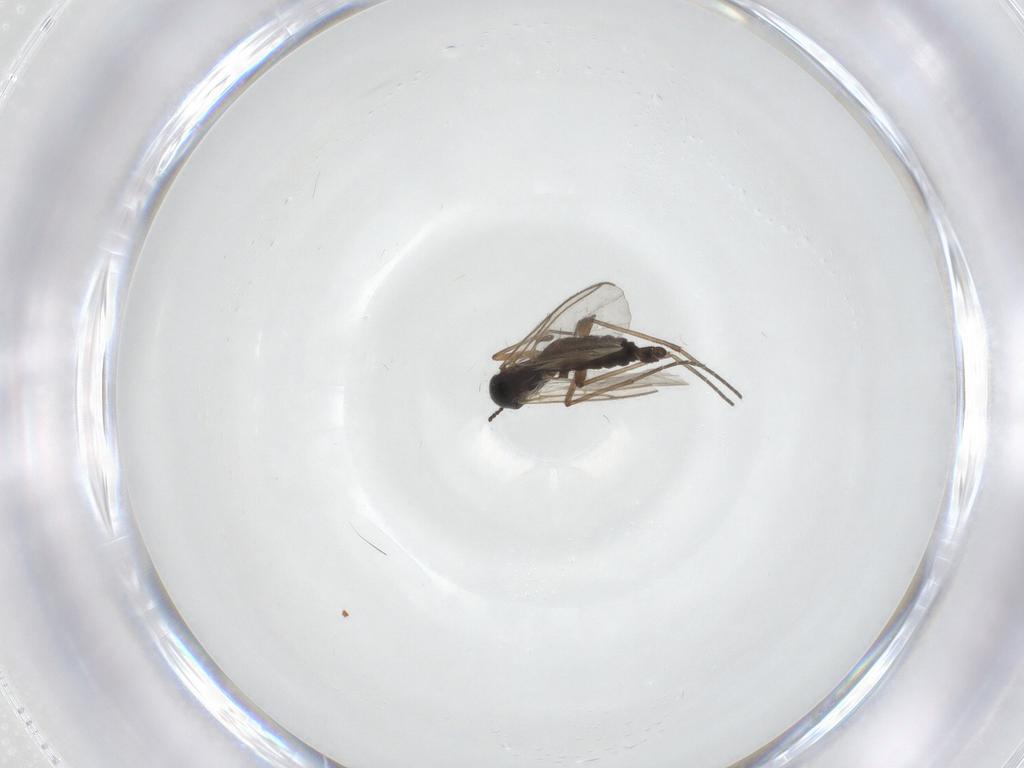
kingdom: Animalia
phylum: Arthropoda
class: Insecta
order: Diptera
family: Sciaridae
